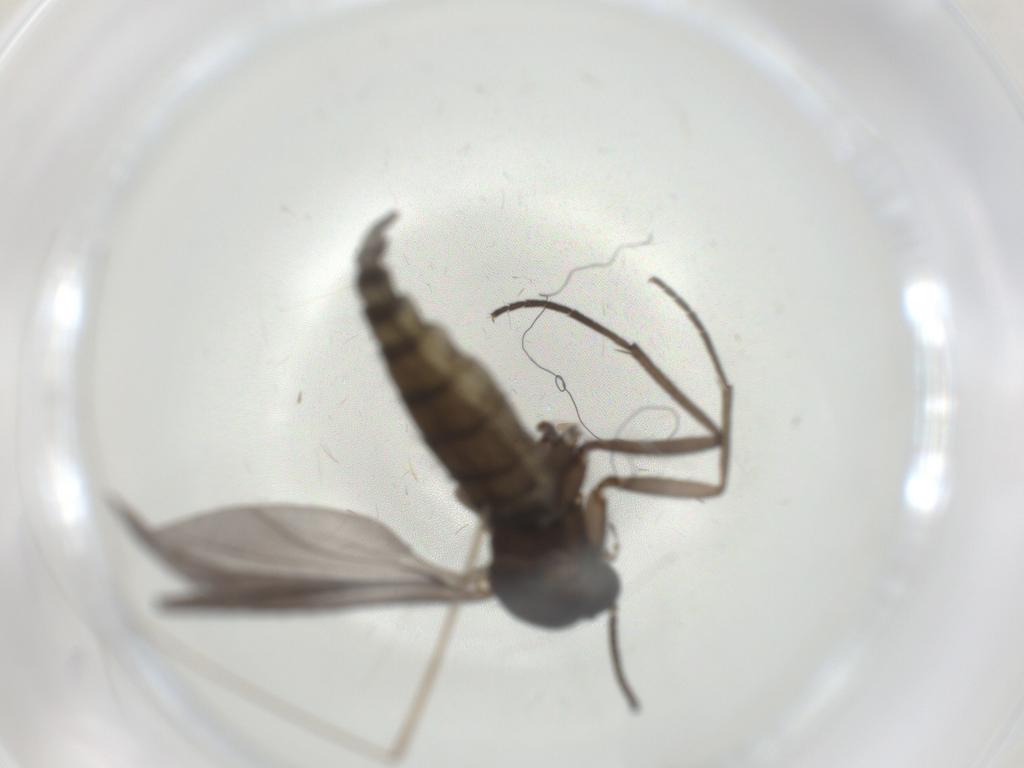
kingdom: Animalia
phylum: Arthropoda
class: Insecta
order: Diptera
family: Sciaridae
